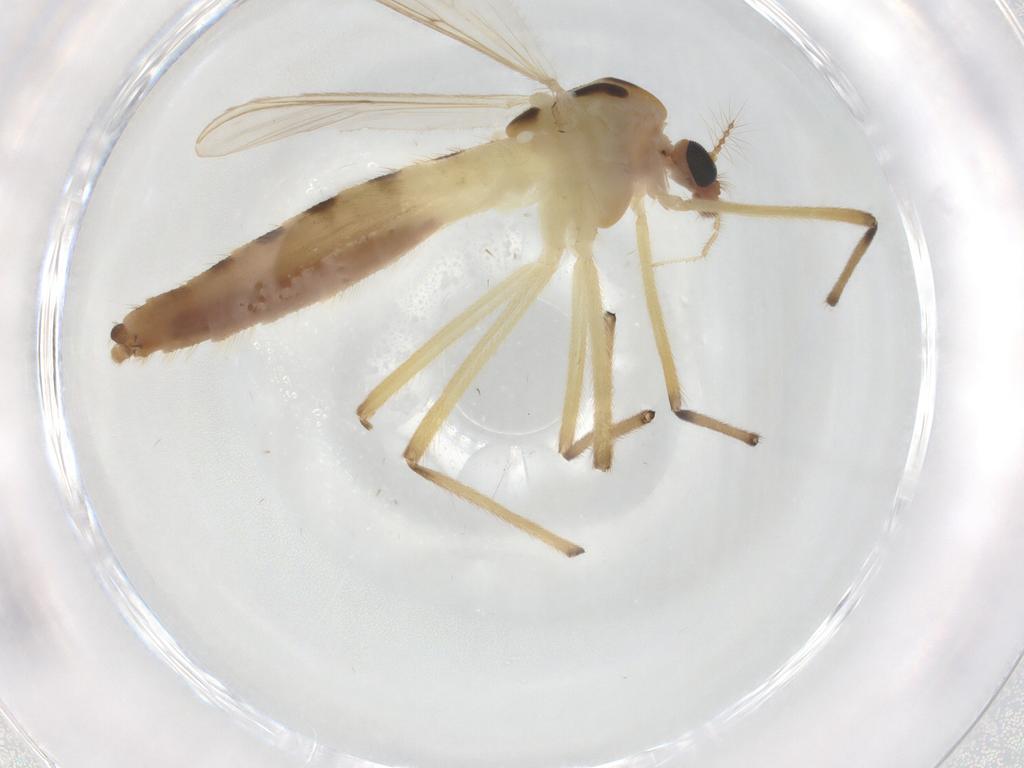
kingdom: Animalia
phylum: Arthropoda
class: Insecta
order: Diptera
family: Chironomidae
